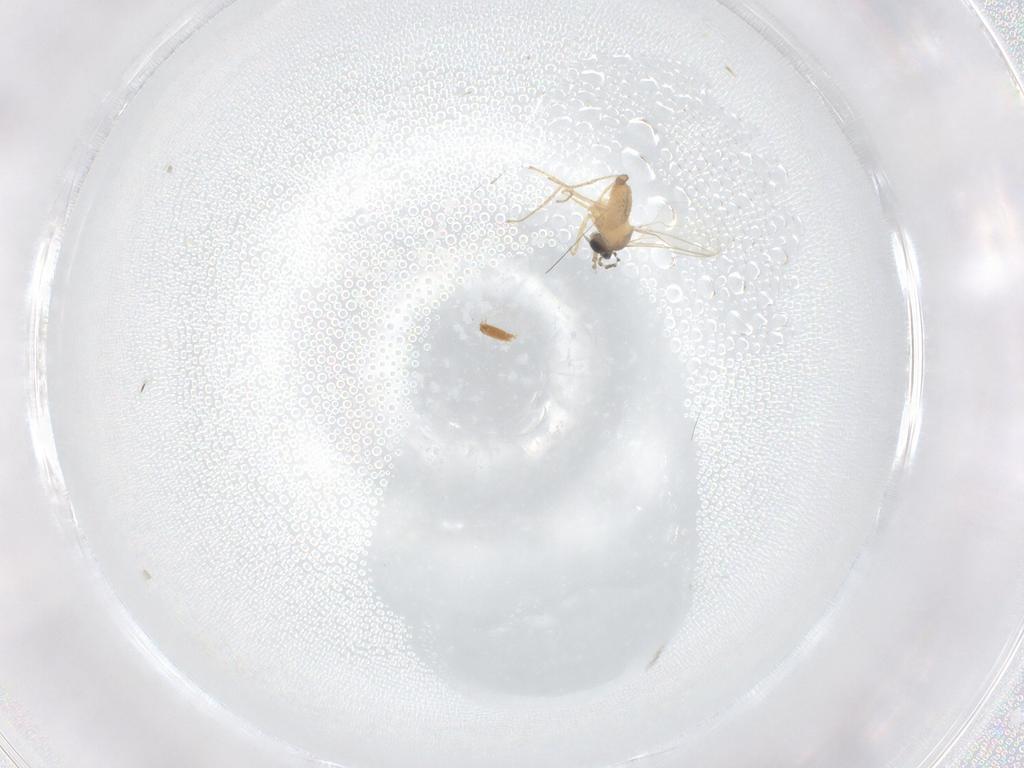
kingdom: Animalia
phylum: Arthropoda
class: Insecta
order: Diptera
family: Cecidomyiidae
